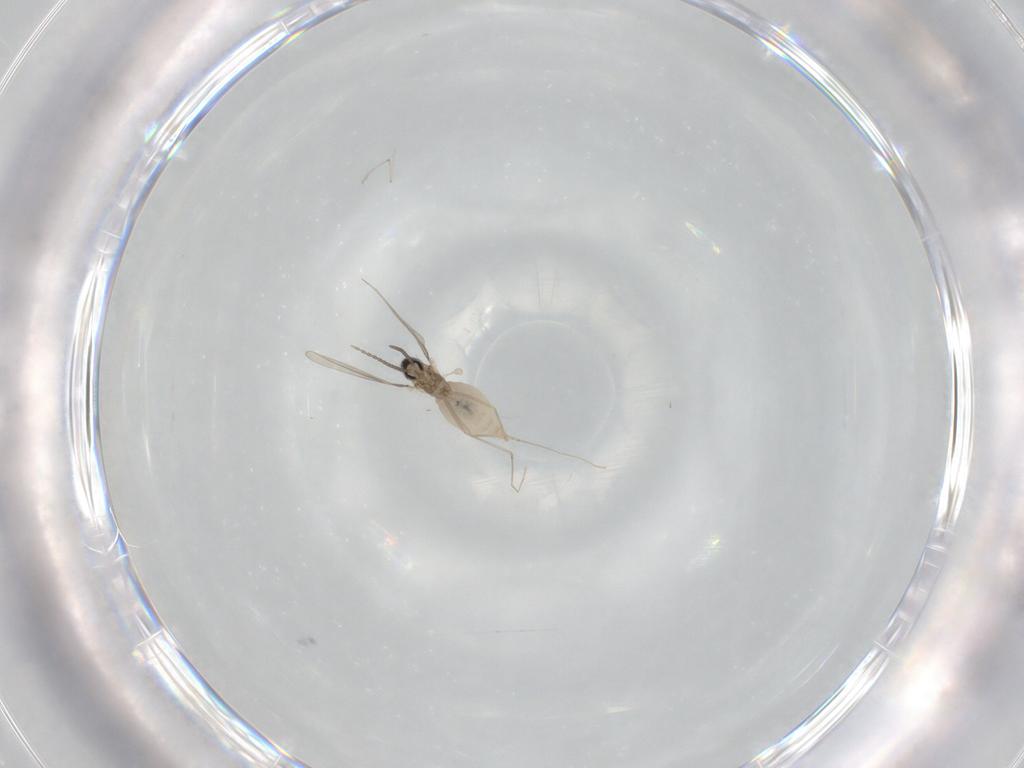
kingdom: Animalia
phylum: Arthropoda
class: Insecta
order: Diptera
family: Cecidomyiidae
